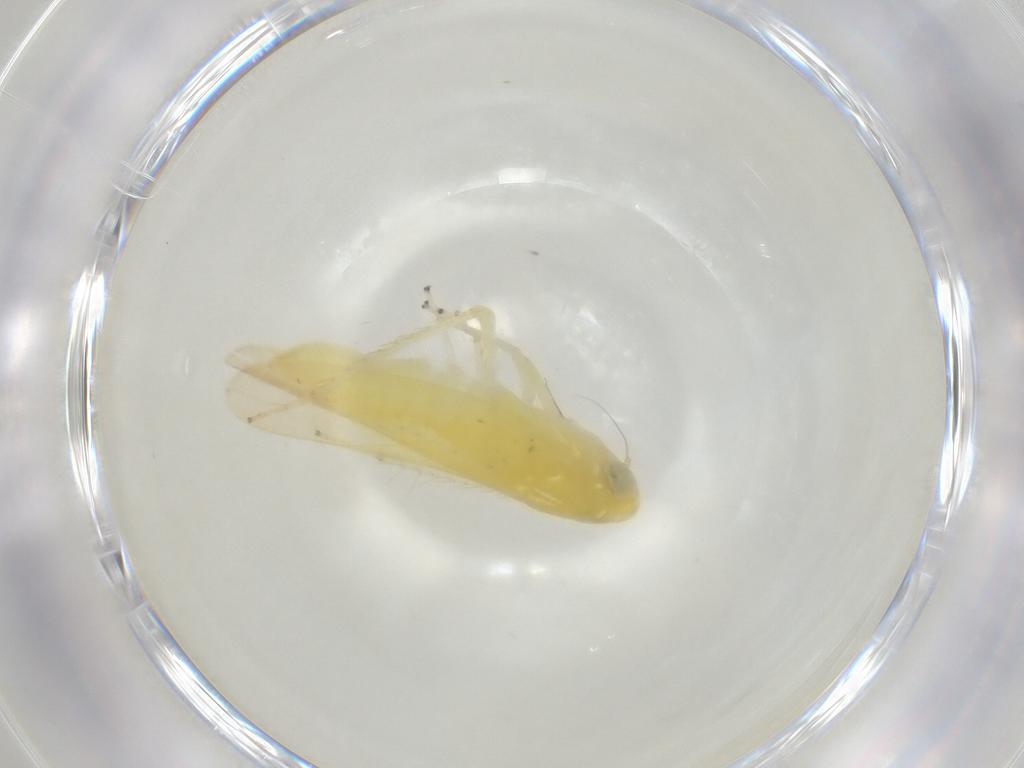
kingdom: Animalia
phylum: Arthropoda
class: Insecta
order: Hemiptera
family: Cicadellidae
